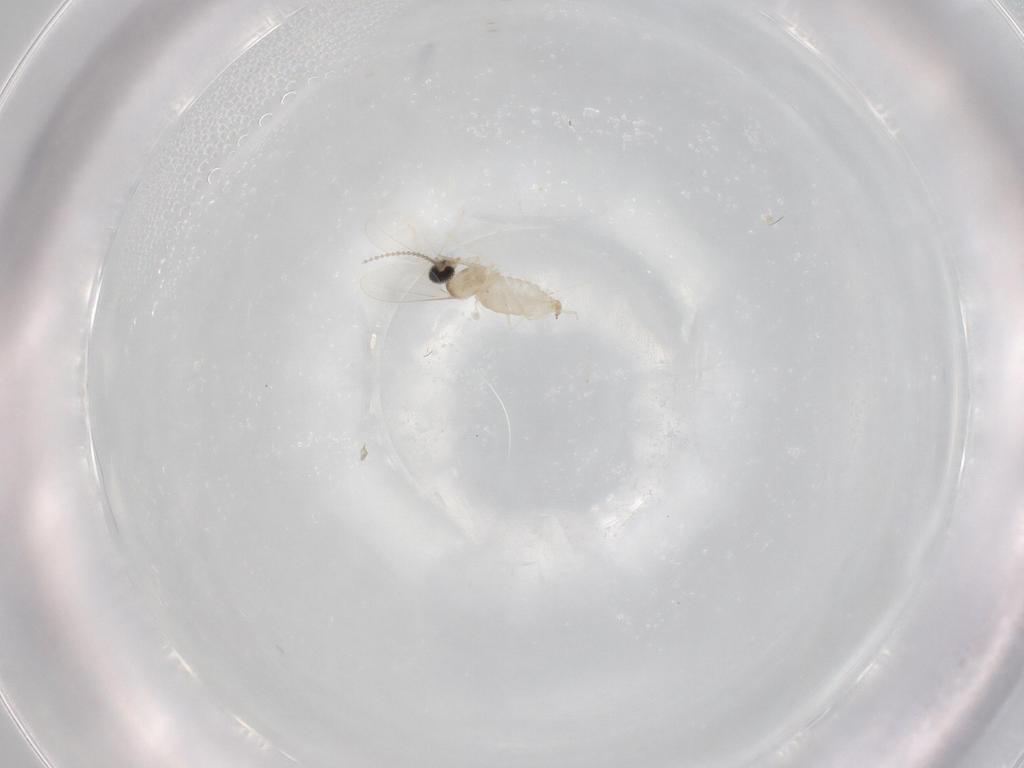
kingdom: Animalia
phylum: Arthropoda
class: Insecta
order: Diptera
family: Cecidomyiidae
